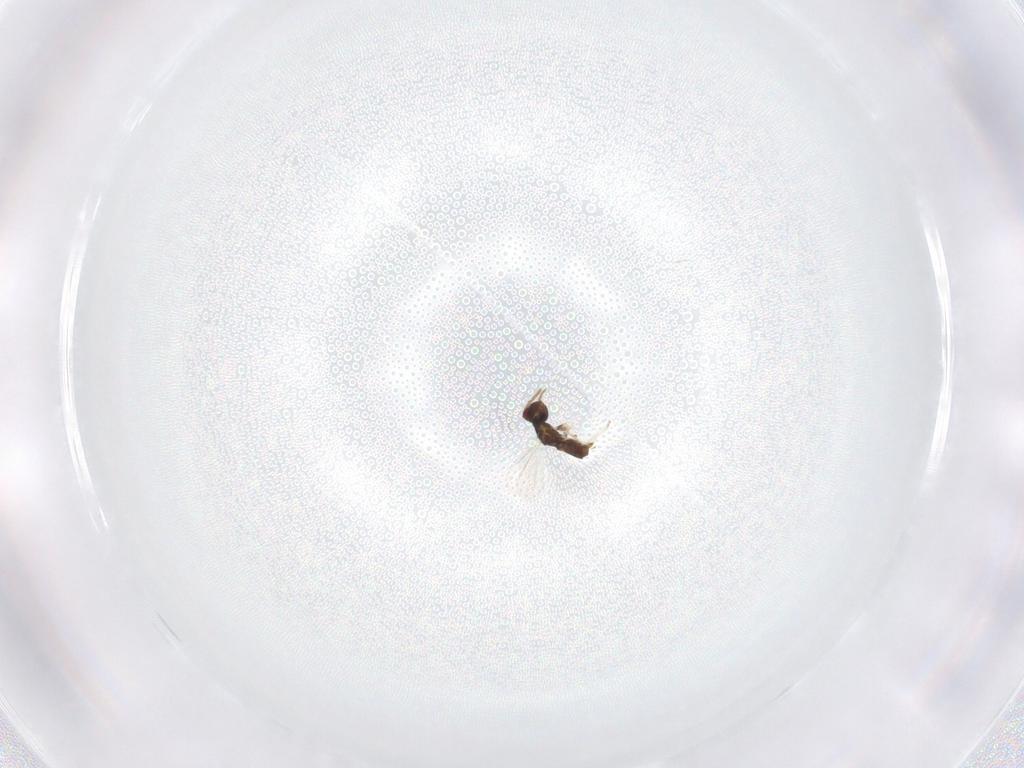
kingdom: Animalia
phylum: Arthropoda
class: Insecta
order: Hymenoptera
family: Eulophidae
